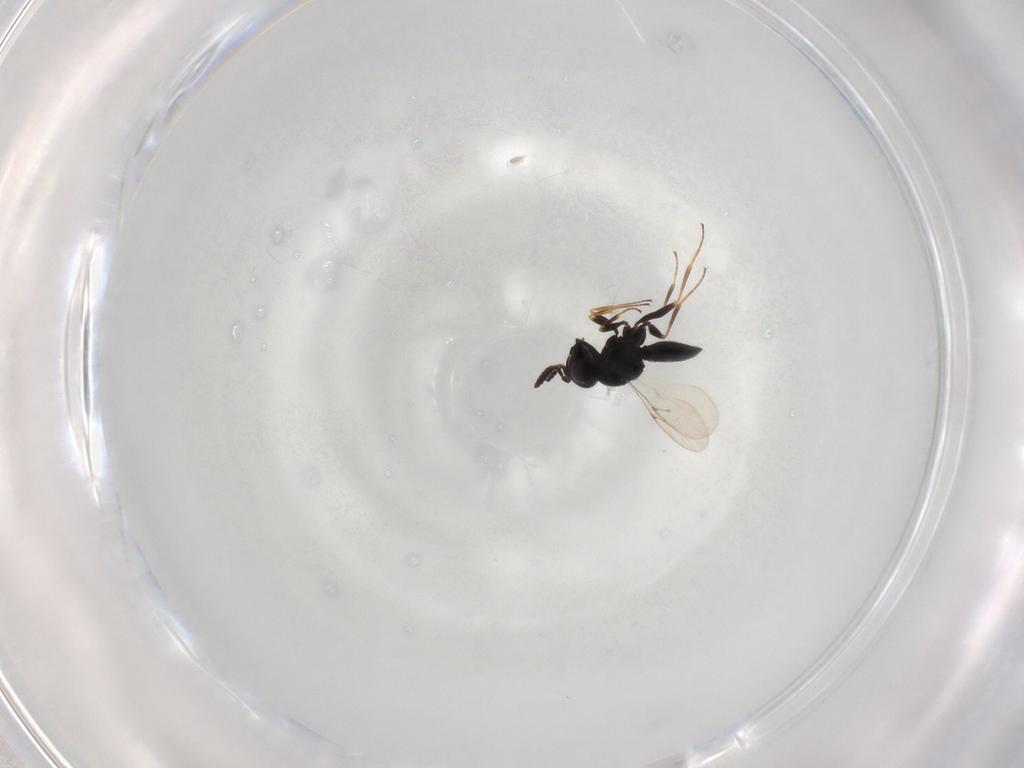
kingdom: Animalia
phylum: Arthropoda
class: Insecta
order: Hymenoptera
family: Scelionidae
